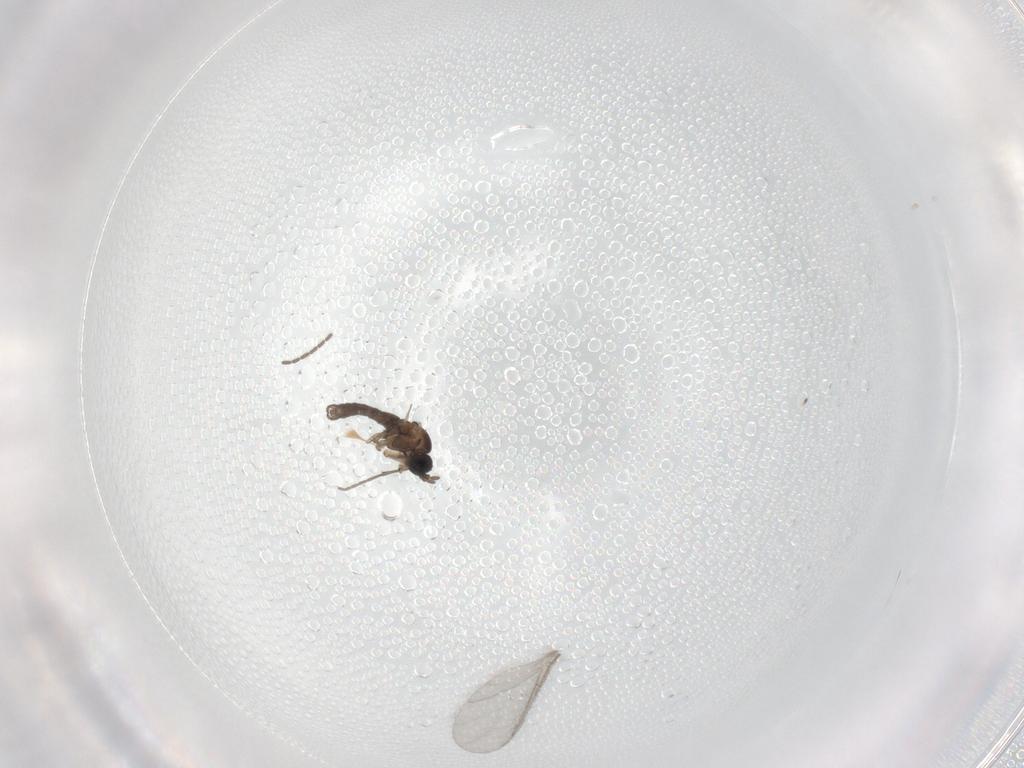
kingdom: Animalia
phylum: Arthropoda
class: Insecta
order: Diptera
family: Sciaridae
